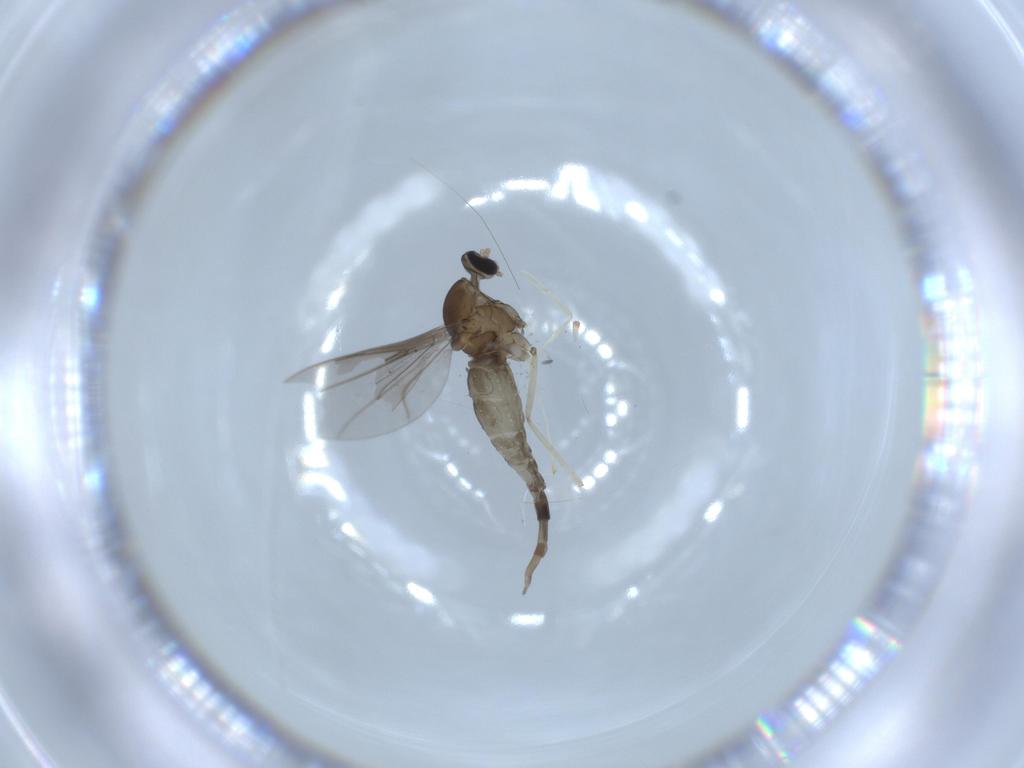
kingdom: Animalia
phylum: Arthropoda
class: Insecta
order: Diptera
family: Cecidomyiidae
